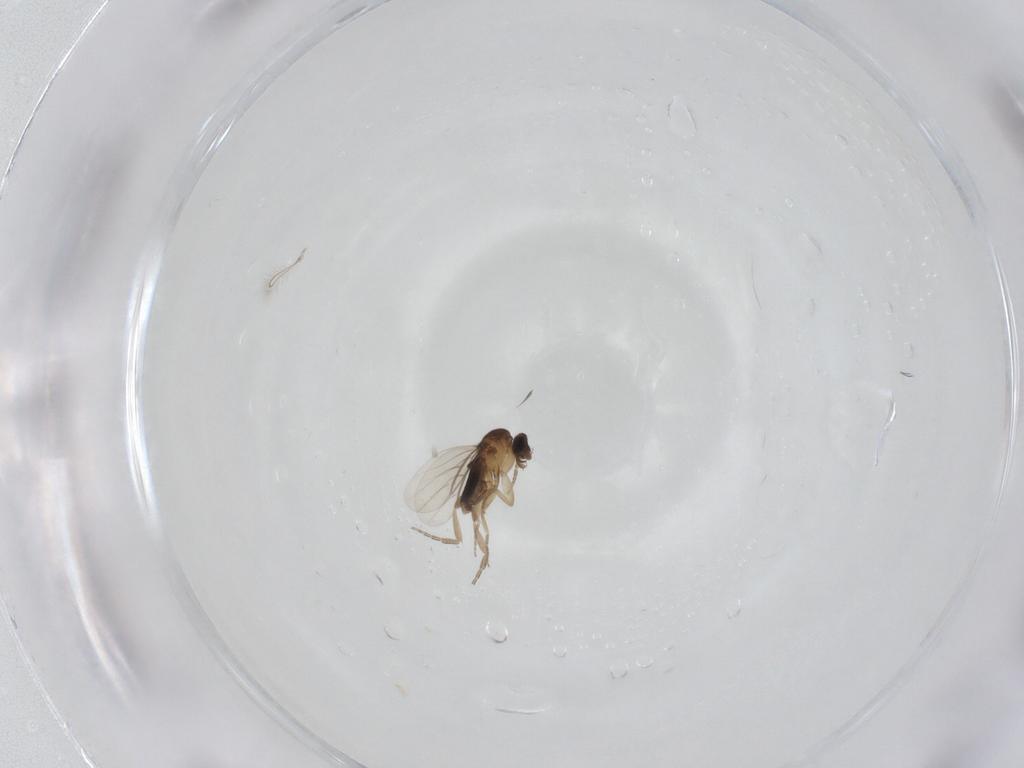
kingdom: Animalia
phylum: Arthropoda
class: Insecta
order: Diptera
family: Phoridae
